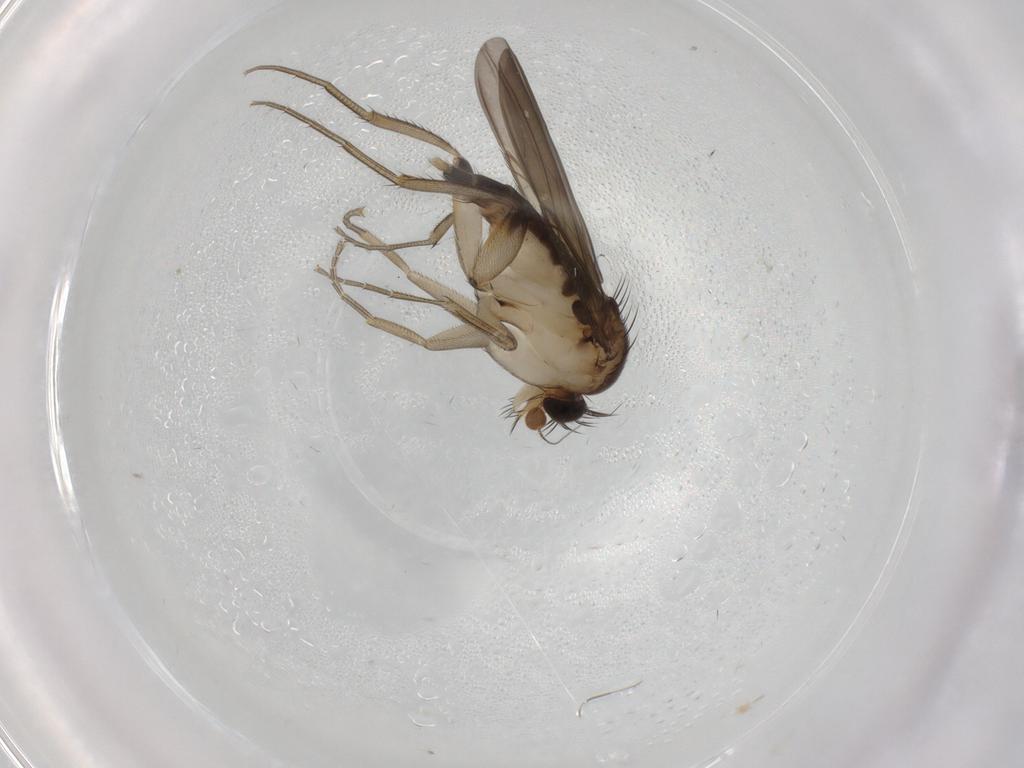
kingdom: Animalia
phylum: Arthropoda
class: Insecta
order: Diptera
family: Phoridae
